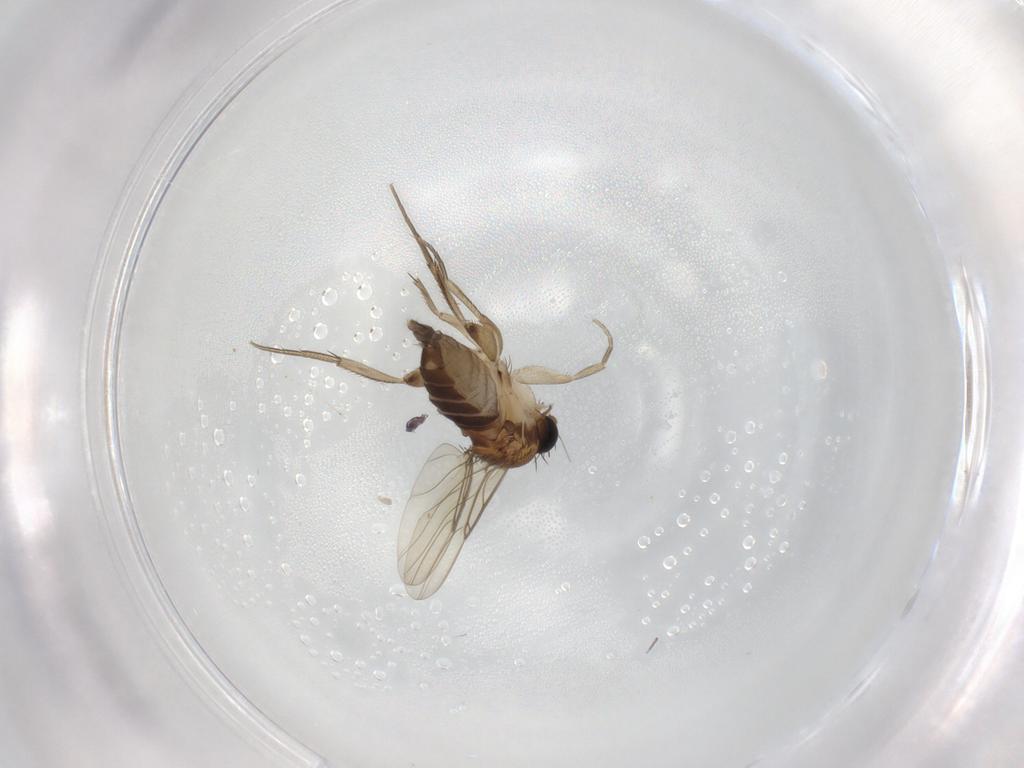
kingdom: Animalia
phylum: Arthropoda
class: Insecta
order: Diptera
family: Phoridae
